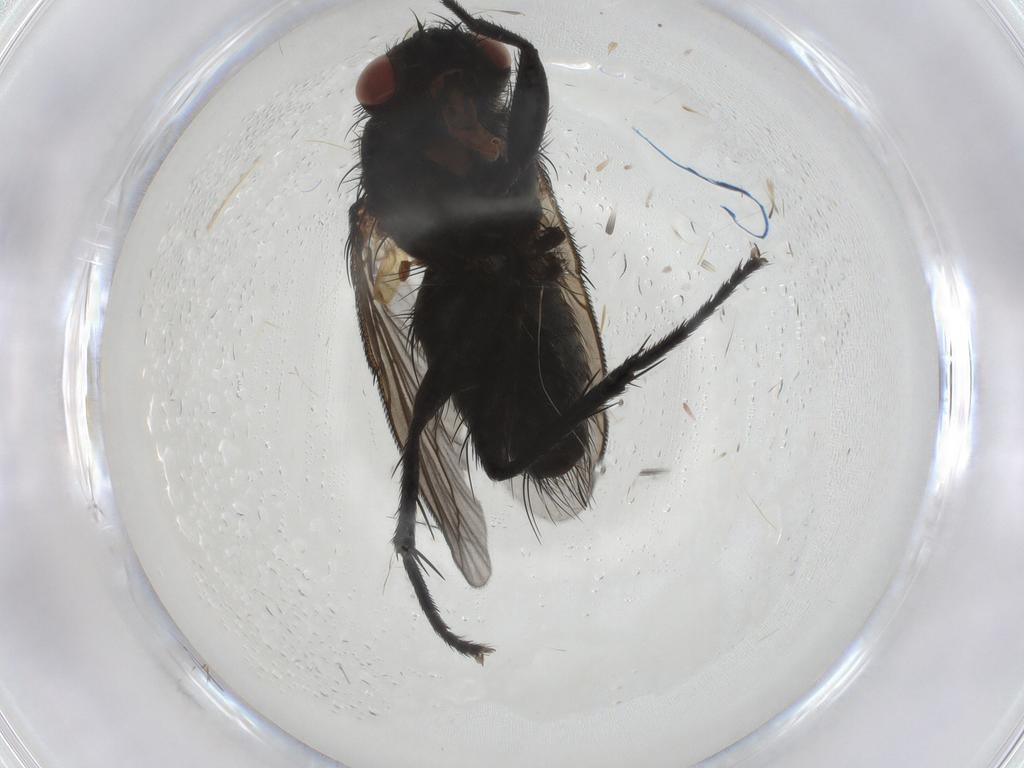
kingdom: Animalia
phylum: Arthropoda
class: Insecta
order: Diptera
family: Tachinidae
